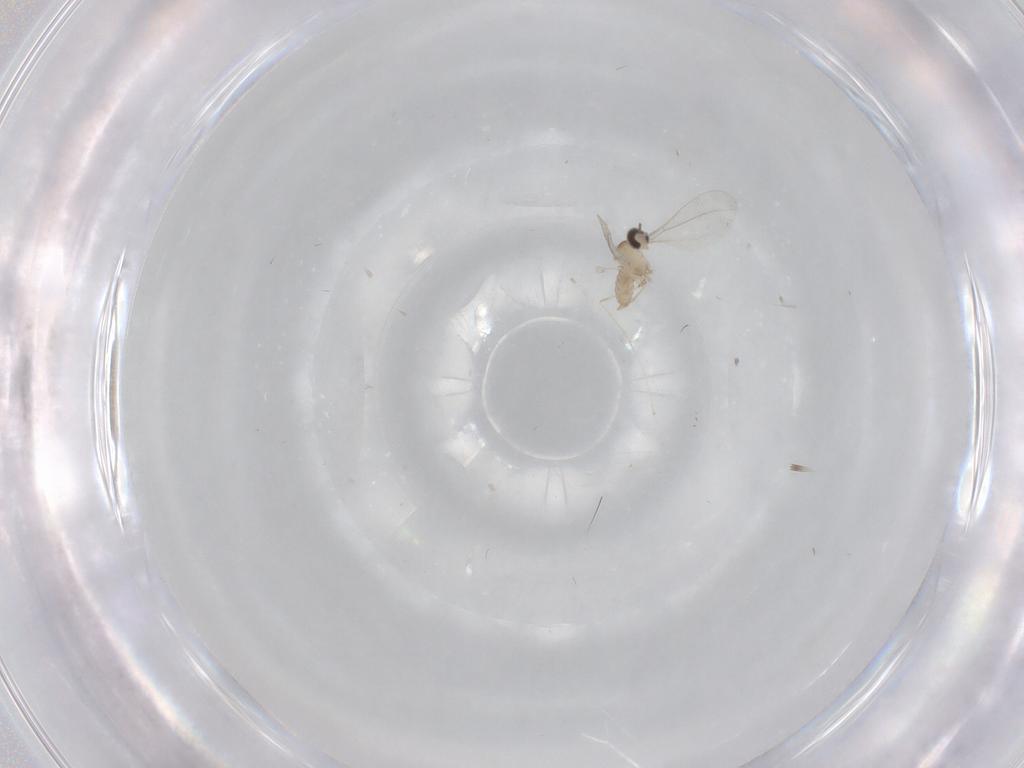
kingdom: Animalia
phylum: Arthropoda
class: Insecta
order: Diptera
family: Cecidomyiidae
